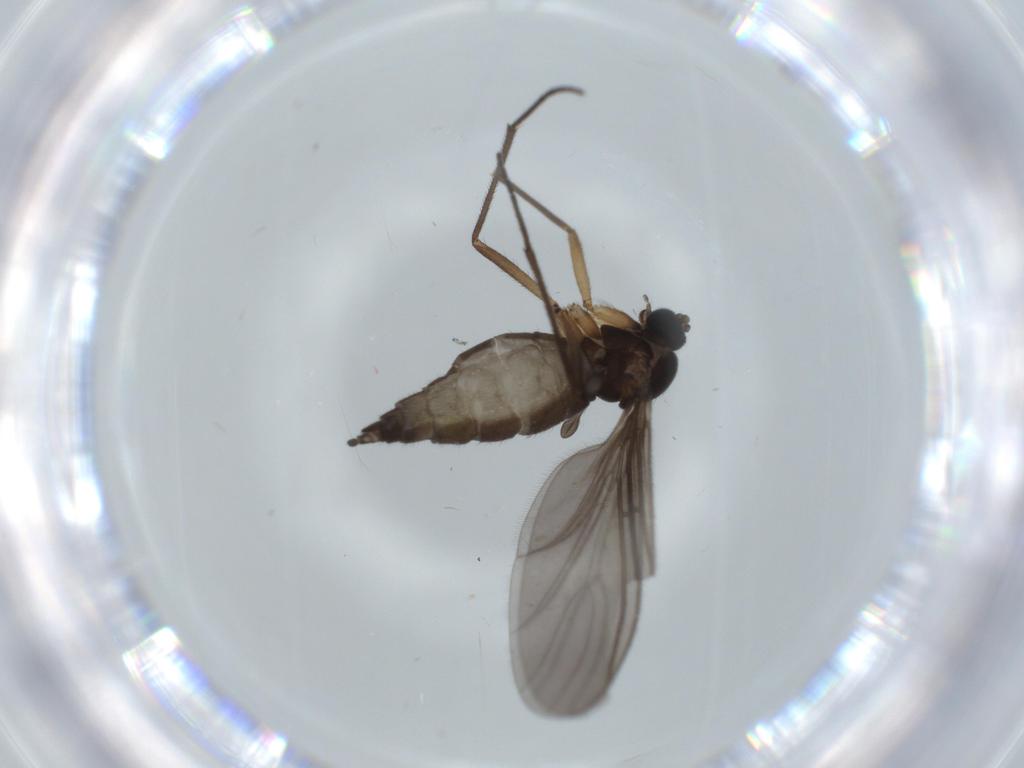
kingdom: Animalia
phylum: Arthropoda
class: Insecta
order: Diptera
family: Sciaridae
